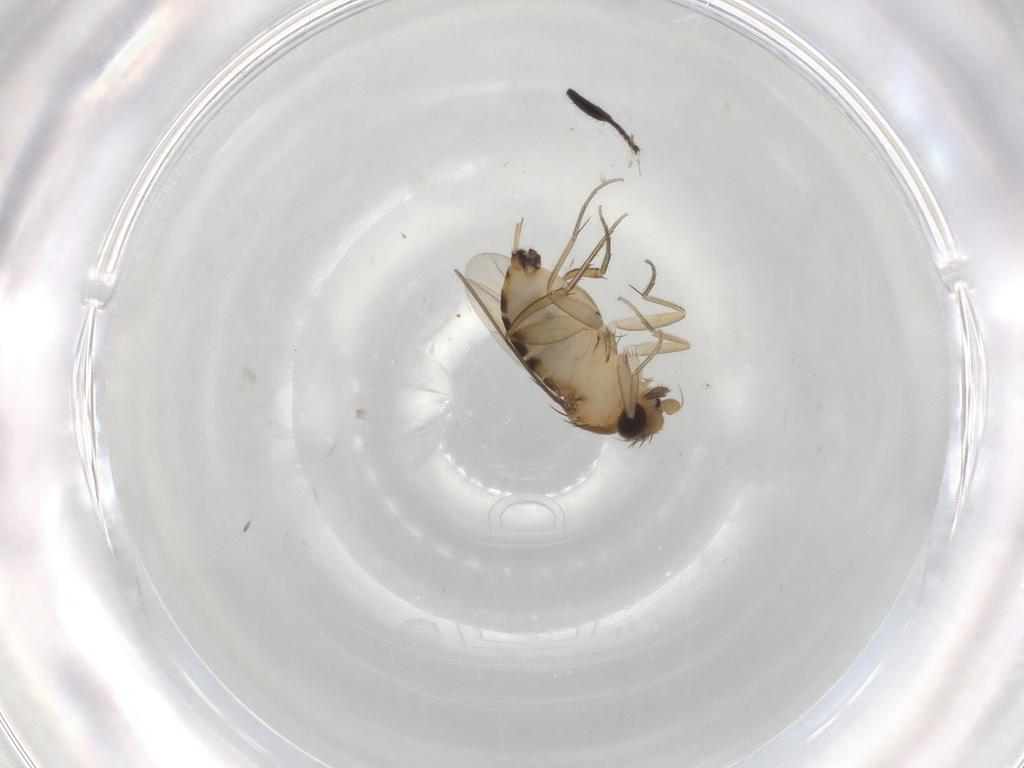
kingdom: Animalia
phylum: Arthropoda
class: Insecta
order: Diptera
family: Phoridae
